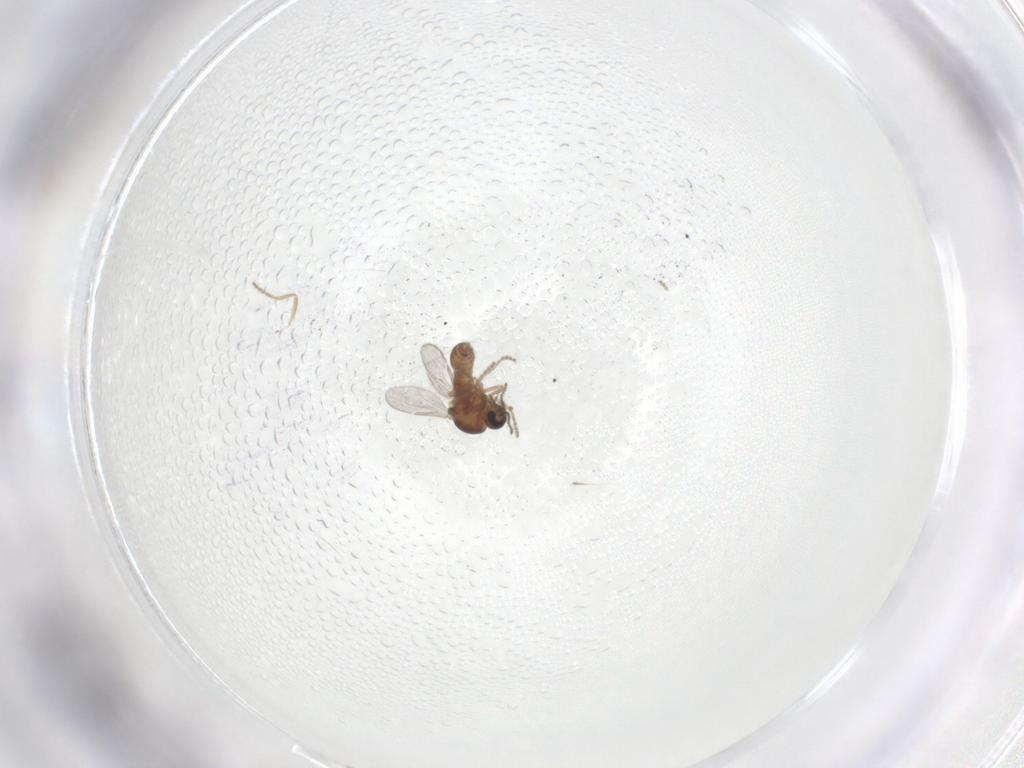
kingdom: Animalia
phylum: Arthropoda
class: Insecta
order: Diptera
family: Ceratopogonidae
